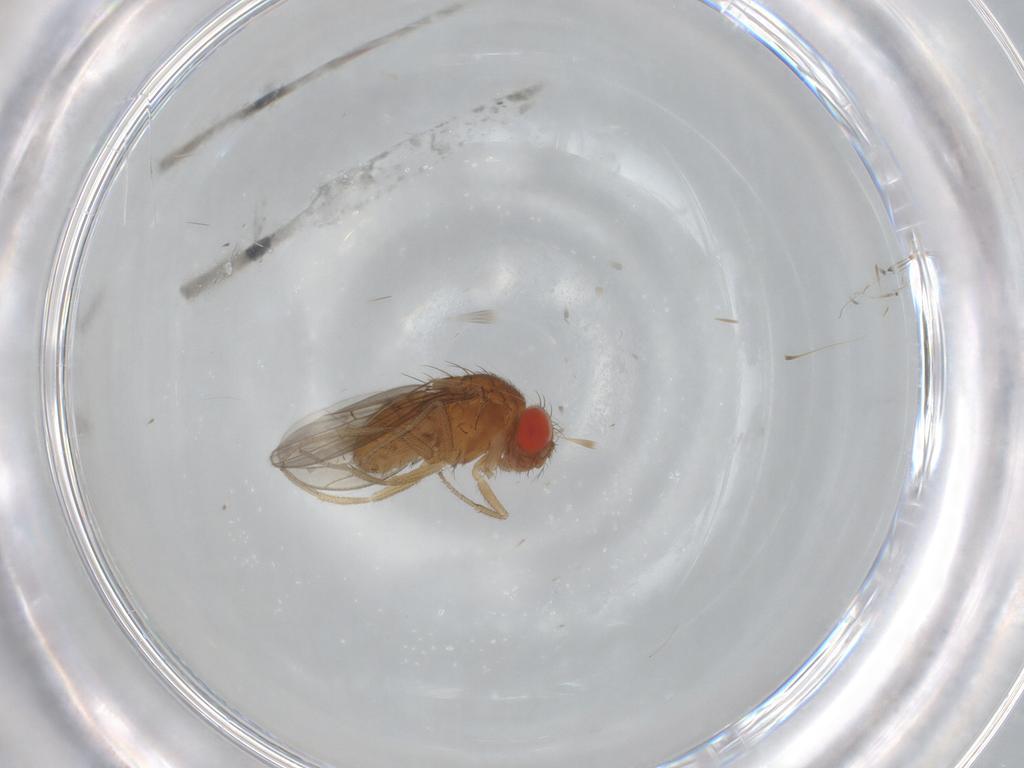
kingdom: Animalia
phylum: Arthropoda
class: Insecta
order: Diptera
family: Drosophilidae
